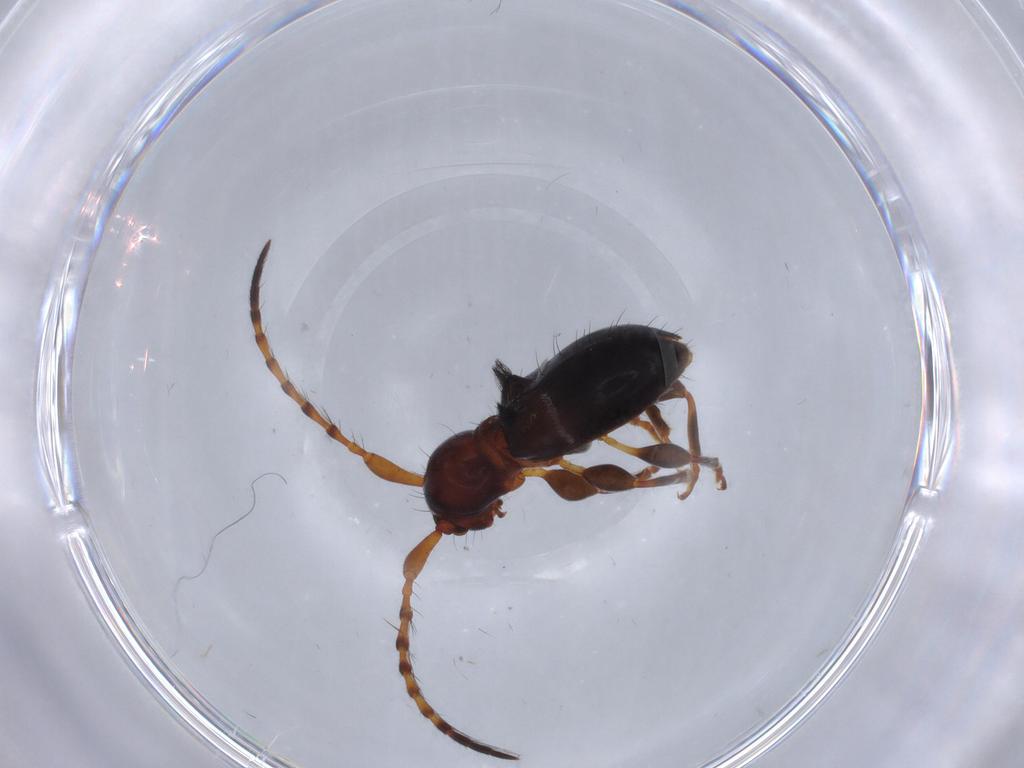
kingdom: Animalia
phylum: Arthropoda
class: Insecta
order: Coleoptera
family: Cerambycidae
